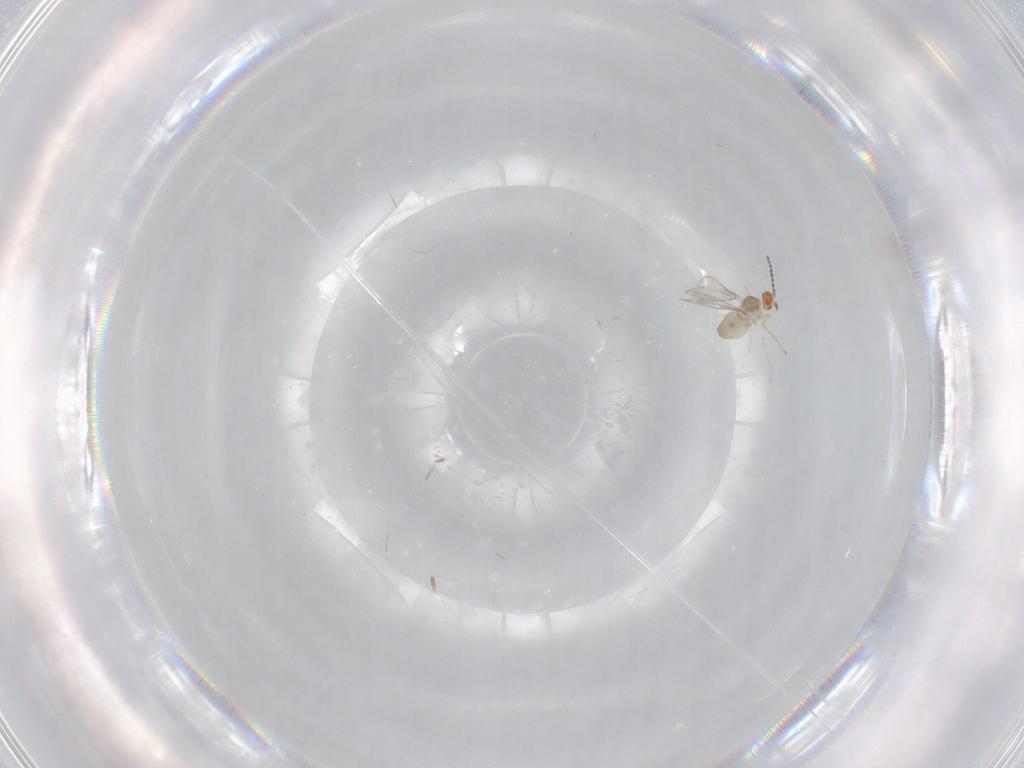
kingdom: Animalia
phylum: Arthropoda
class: Insecta
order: Diptera
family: Cecidomyiidae
